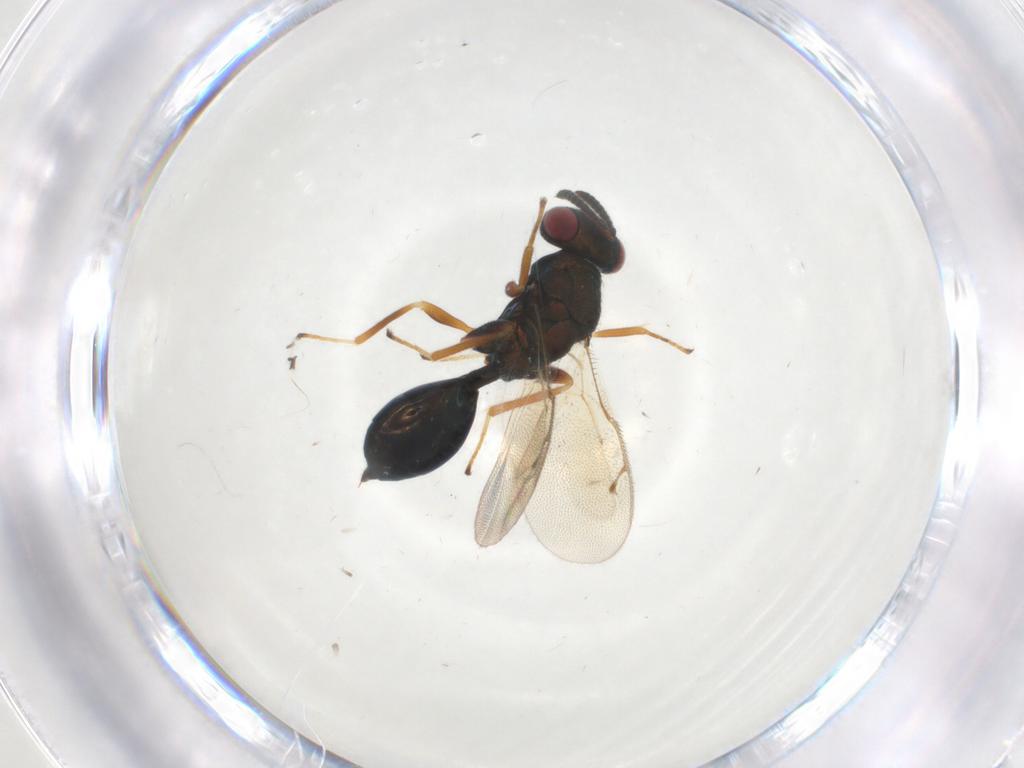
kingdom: Animalia
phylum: Arthropoda
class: Insecta
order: Hymenoptera
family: Pteromalidae
